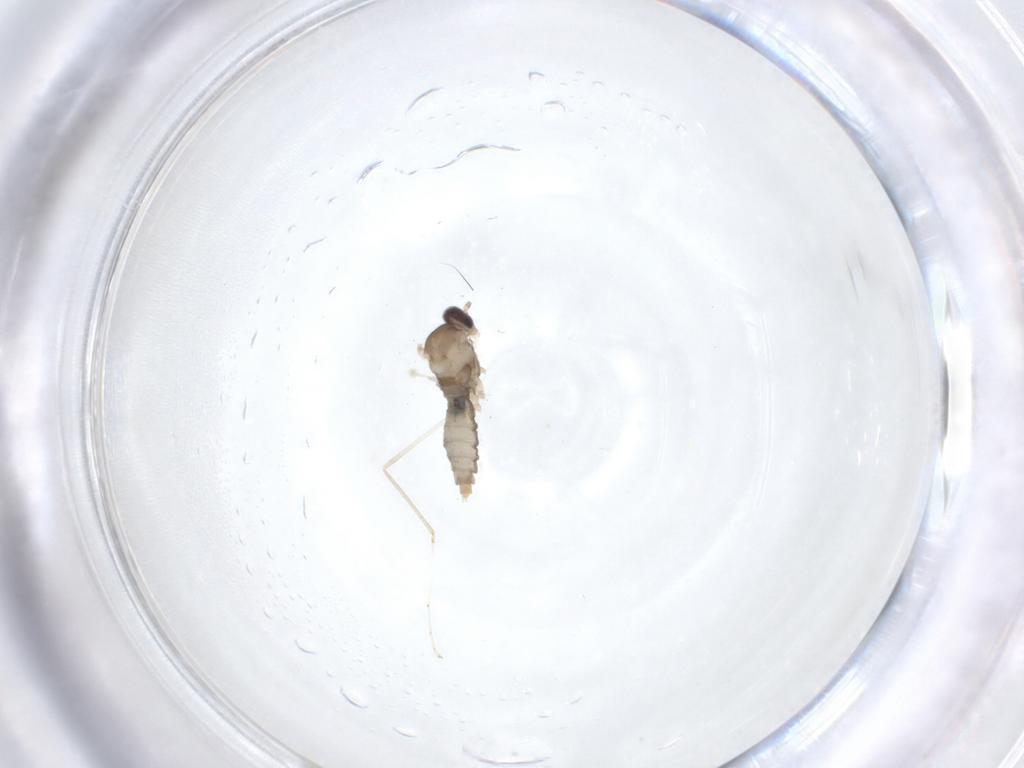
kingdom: Animalia
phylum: Arthropoda
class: Insecta
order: Diptera
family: Cecidomyiidae
